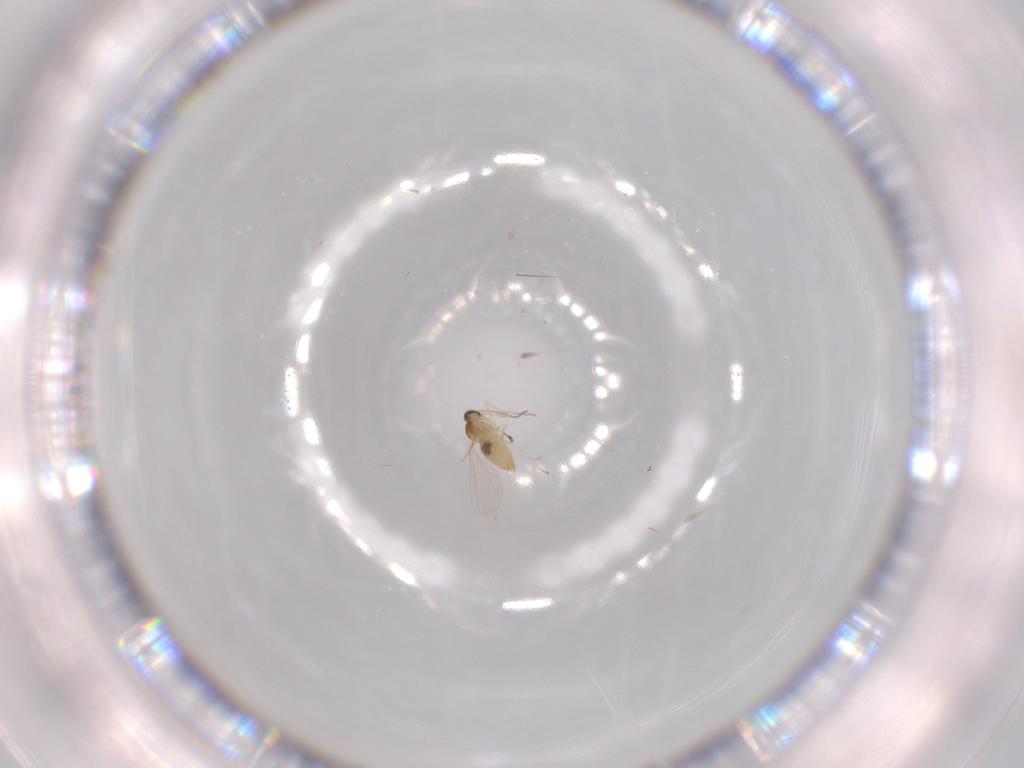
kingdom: Animalia
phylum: Arthropoda
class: Insecta
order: Diptera
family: Cecidomyiidae
